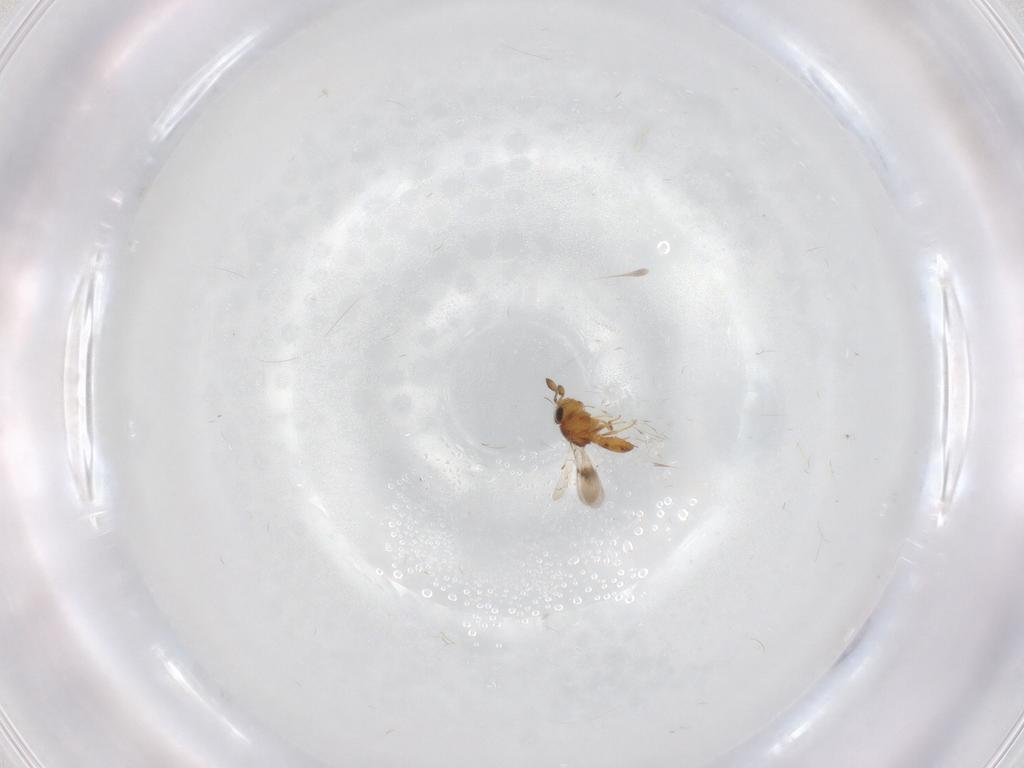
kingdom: Animalia
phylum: Arthropoda
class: Insecta
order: Hymenoptera
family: Scelionidae
